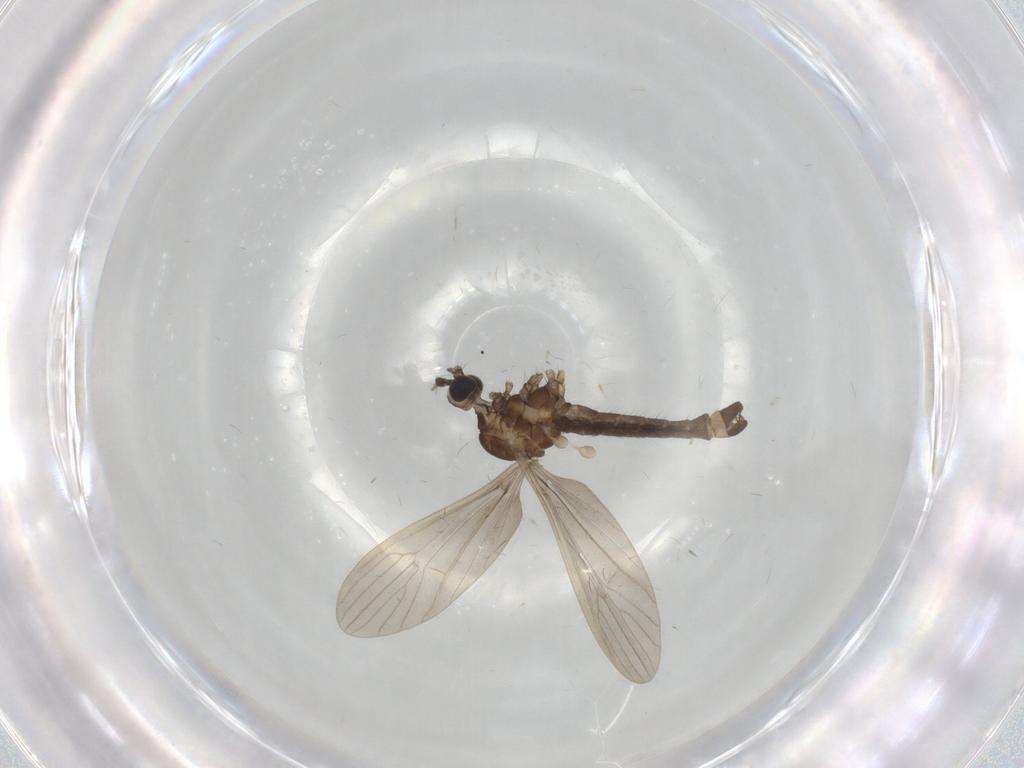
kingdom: Animalia
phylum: Arthropoda
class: Insecta
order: Diptera
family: Limoniidae
